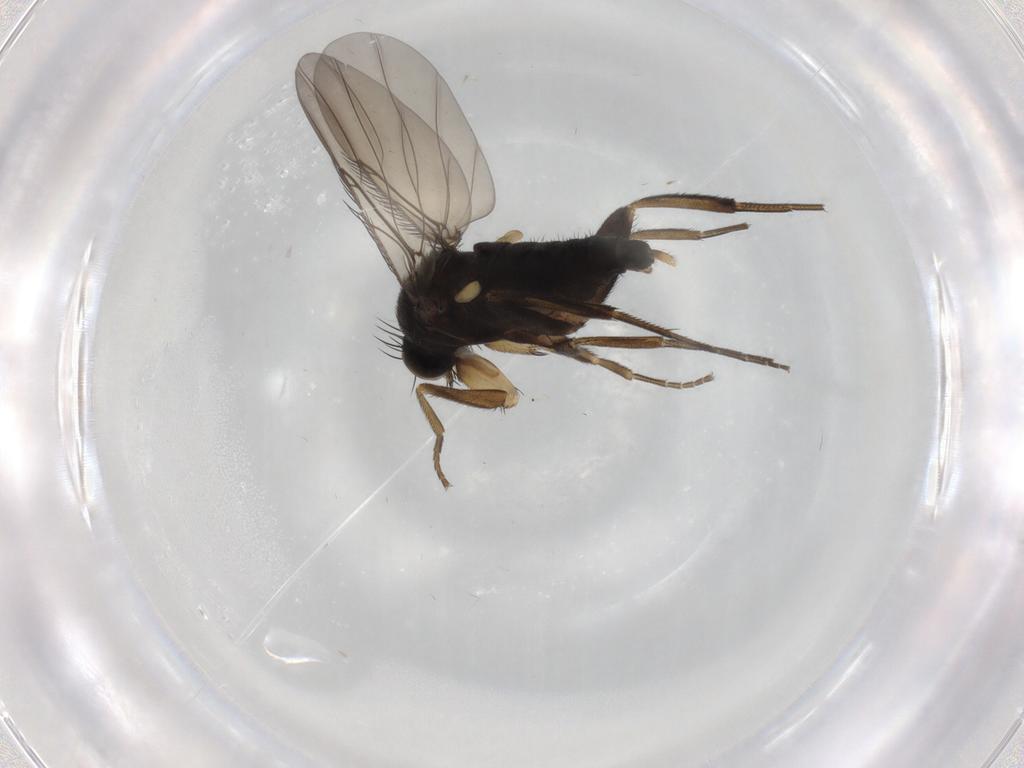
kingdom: Animalia
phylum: Arthropoda
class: Insecta
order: Diptera
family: Phoridae
